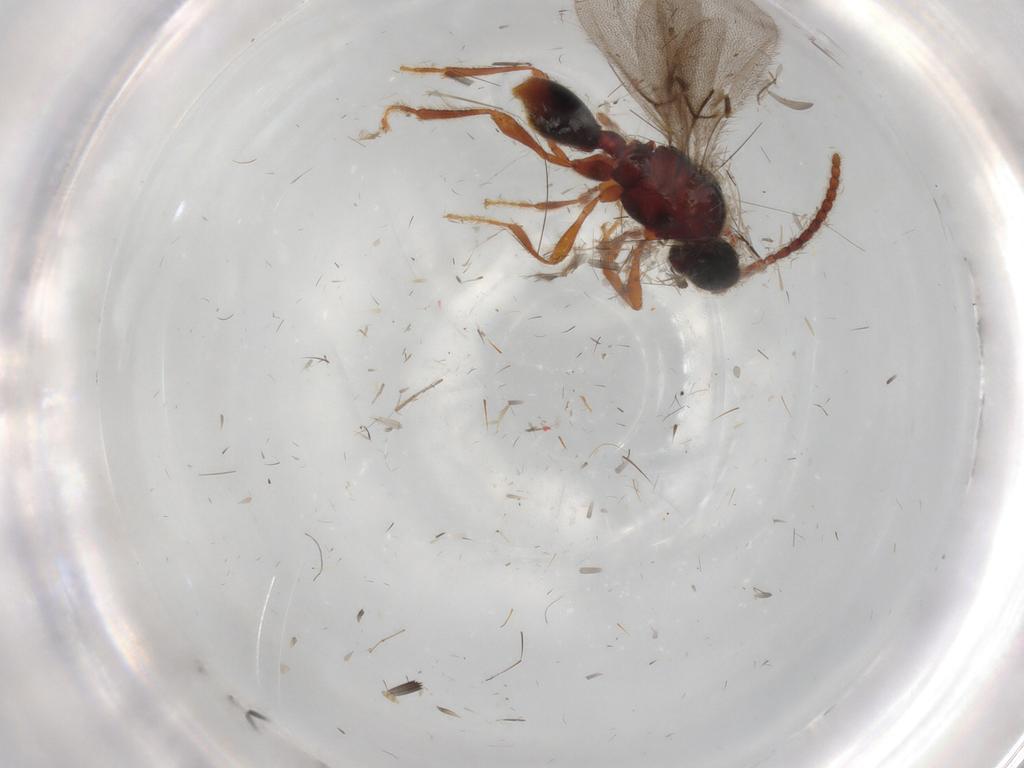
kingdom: Animalia
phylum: Arthropoda
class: Insecta
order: Hymenoptera
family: Diapriidae
